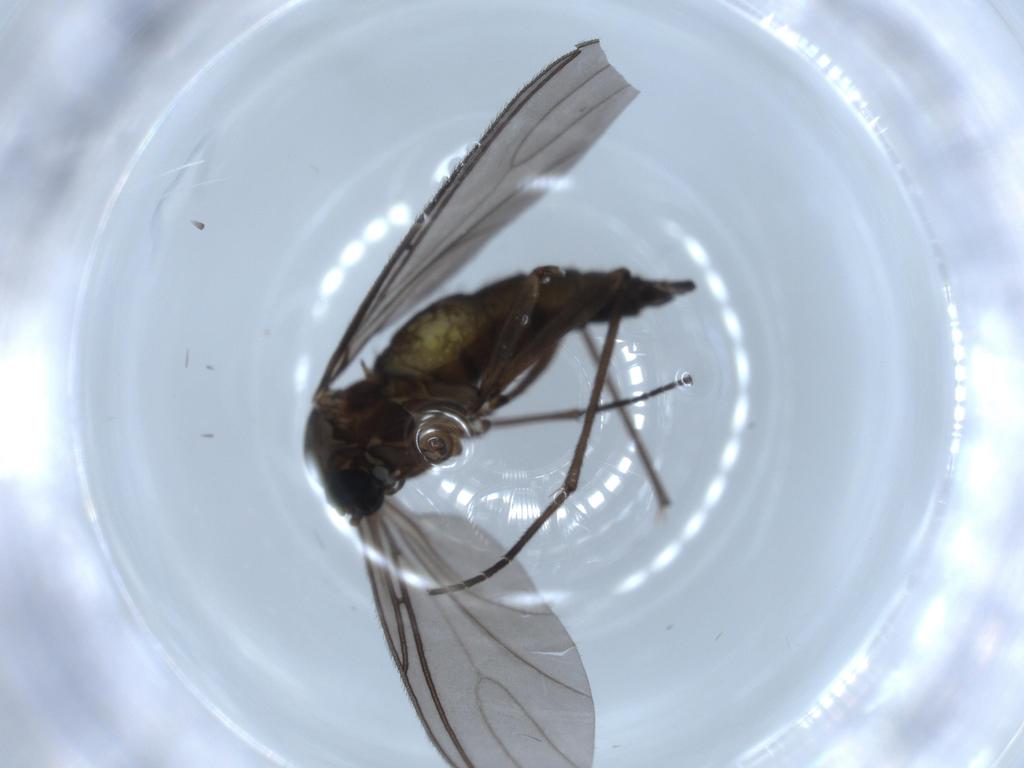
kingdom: Animalia
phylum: Arthropoda
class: Insecta
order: Diptera
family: Sciaridae
